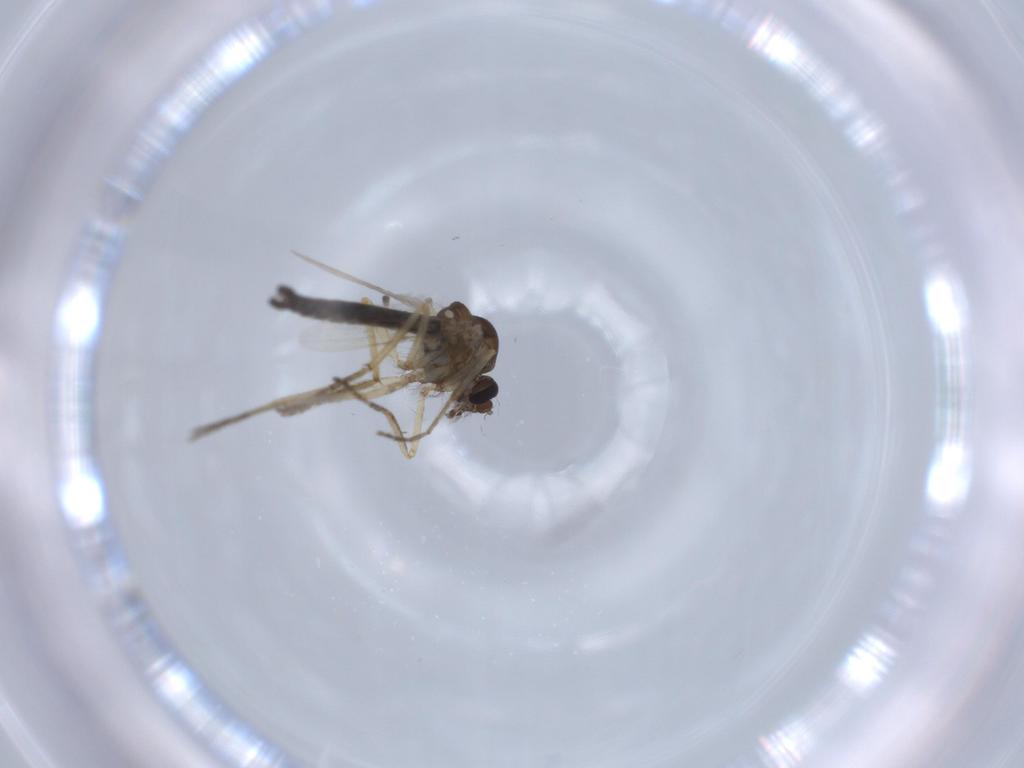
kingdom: Animalia
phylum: Arthropoda
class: Insecta
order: Diptera
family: Ceratopogonidae
